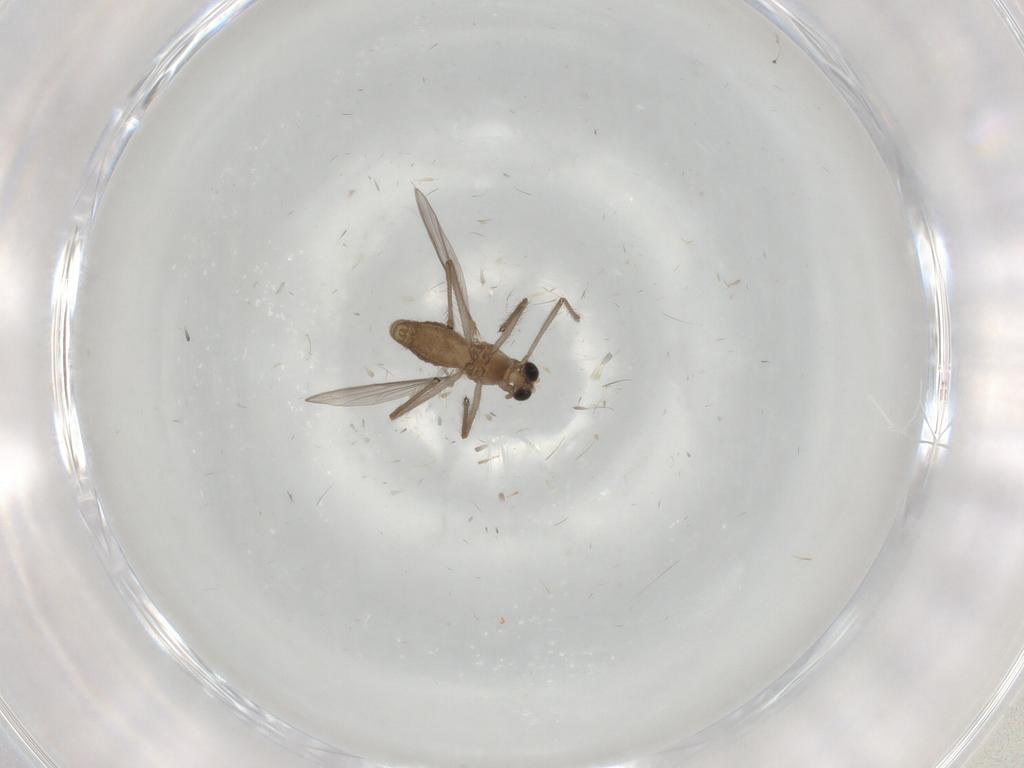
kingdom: Animalia
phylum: Arthropoda
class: Insecta
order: Diptera
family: Chironomidae
